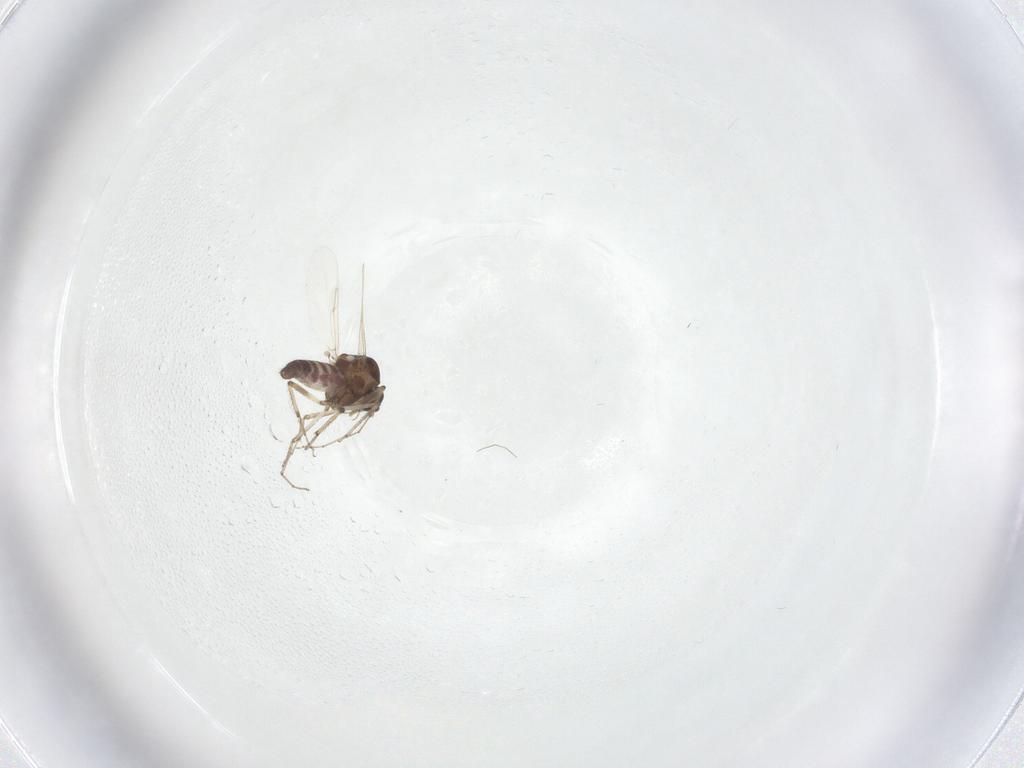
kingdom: Animalia
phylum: Arthropoda
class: Insecta
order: Diptera
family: Ceratopogonidae
